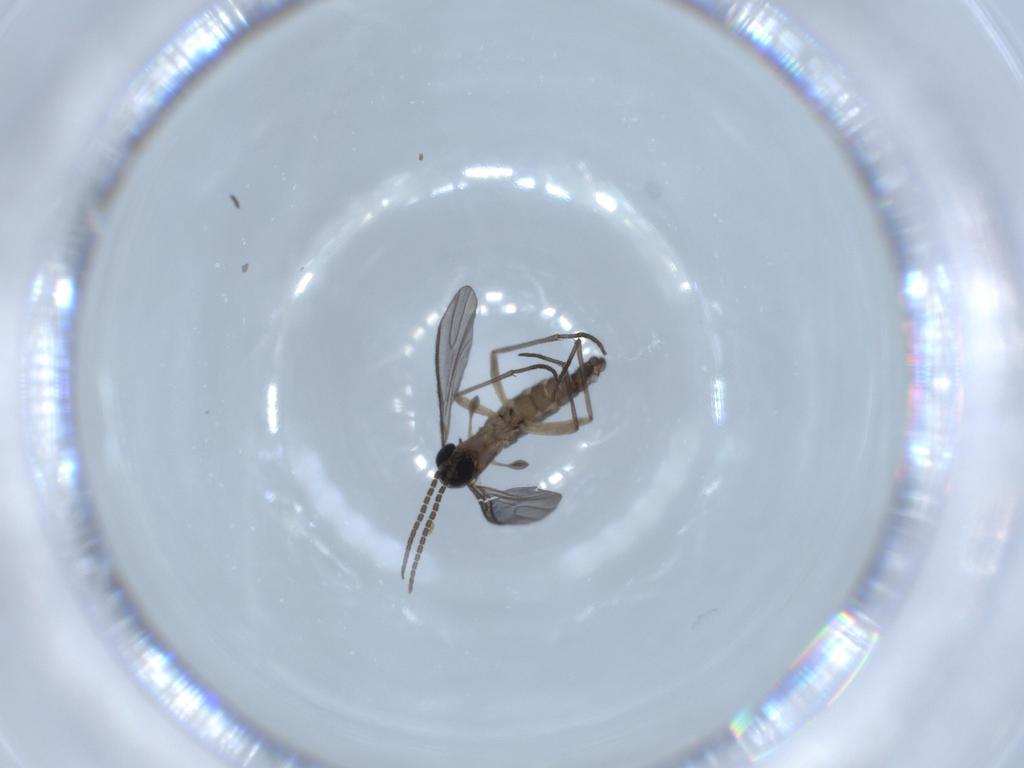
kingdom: Animalia
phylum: Arthropoda
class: Insecta
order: Diptera
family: Sciaridae
